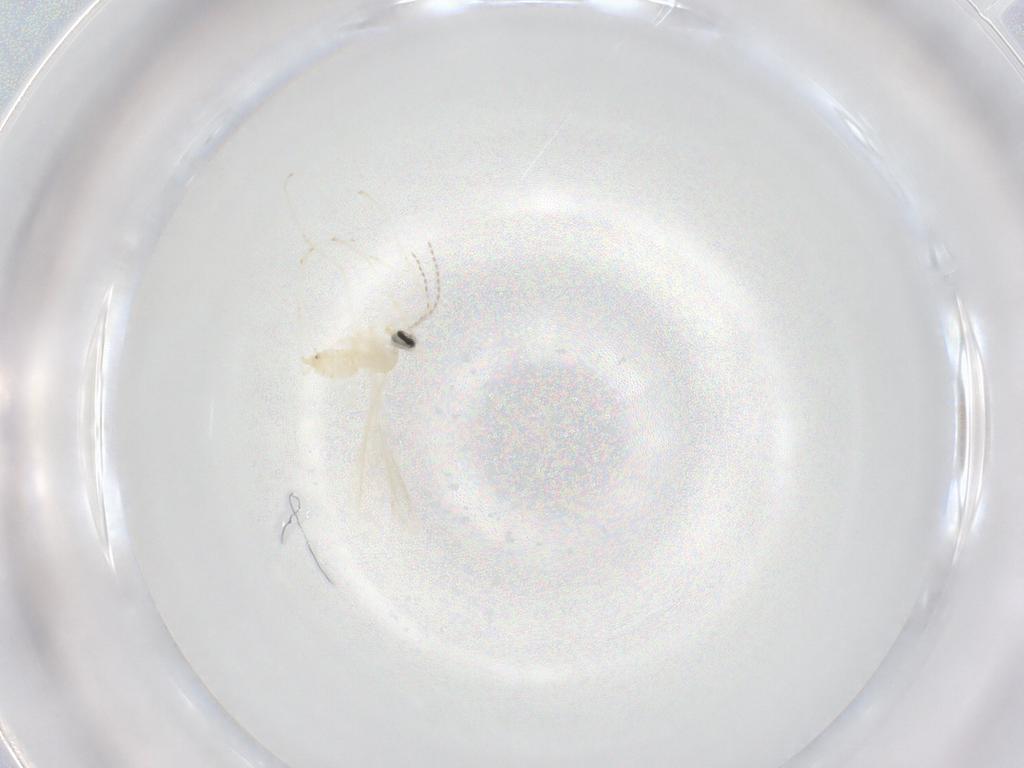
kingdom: Animalia
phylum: Arthropoda
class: Insecta
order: Diptera
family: Cecidomyiidae
